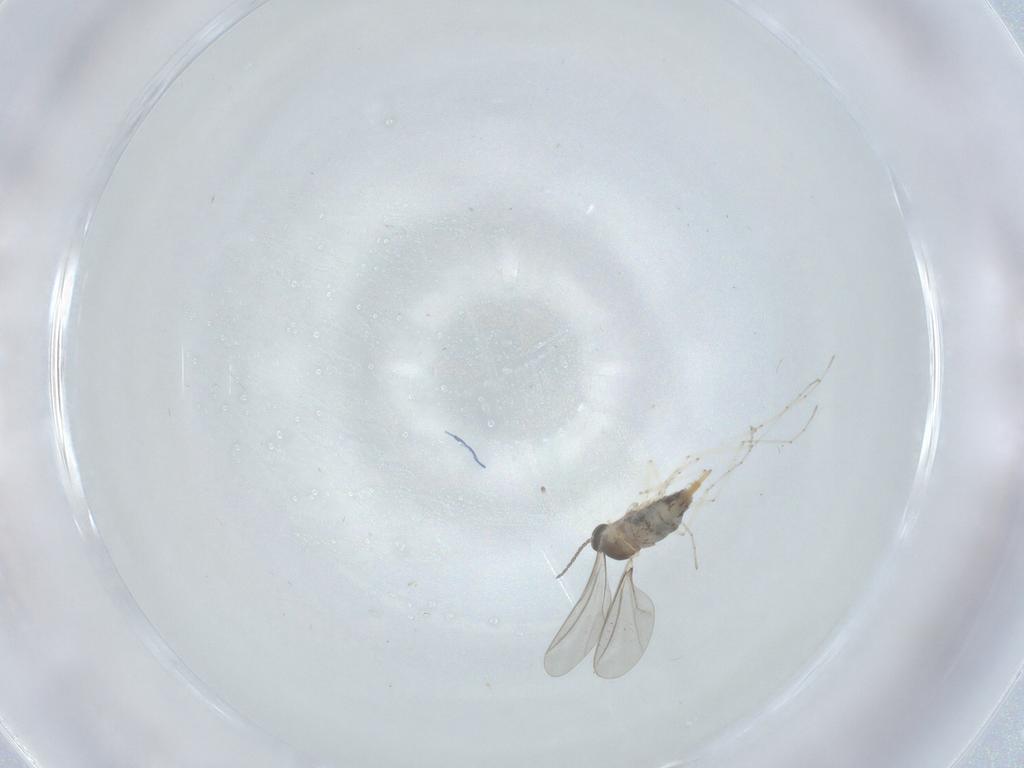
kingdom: Animalia
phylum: Arthropoda
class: Insecta
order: Diptera
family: Cecidomyiidae
